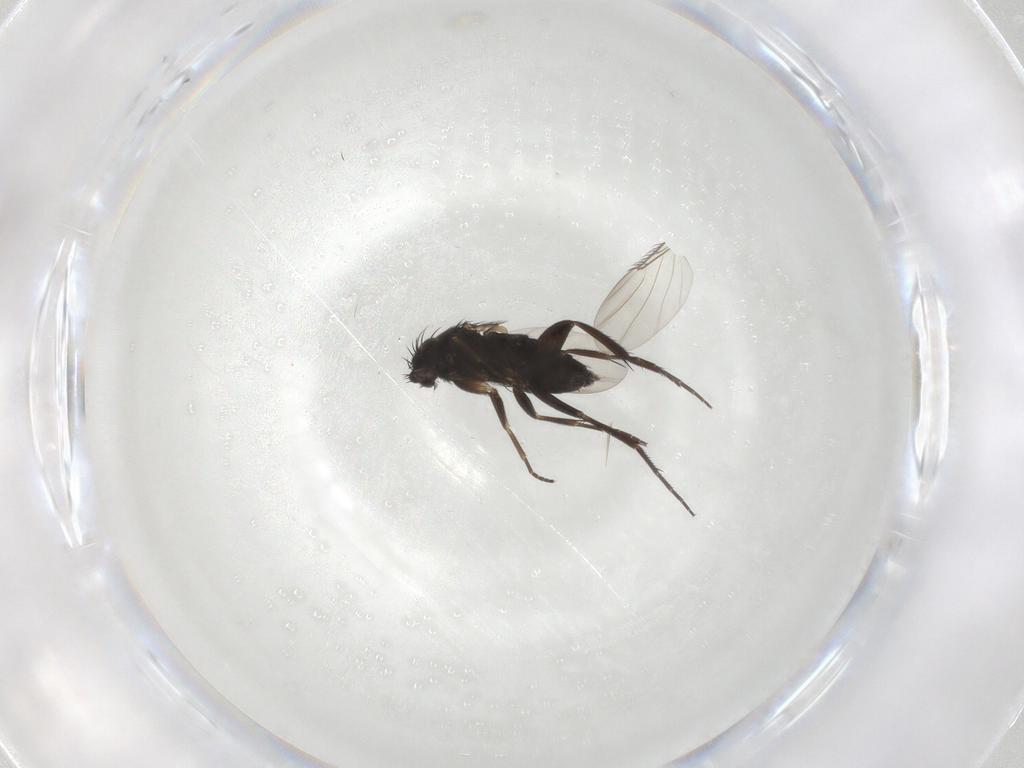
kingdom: Animalia
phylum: Arthropoda
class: Insecta
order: Diptera
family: Phoridae
